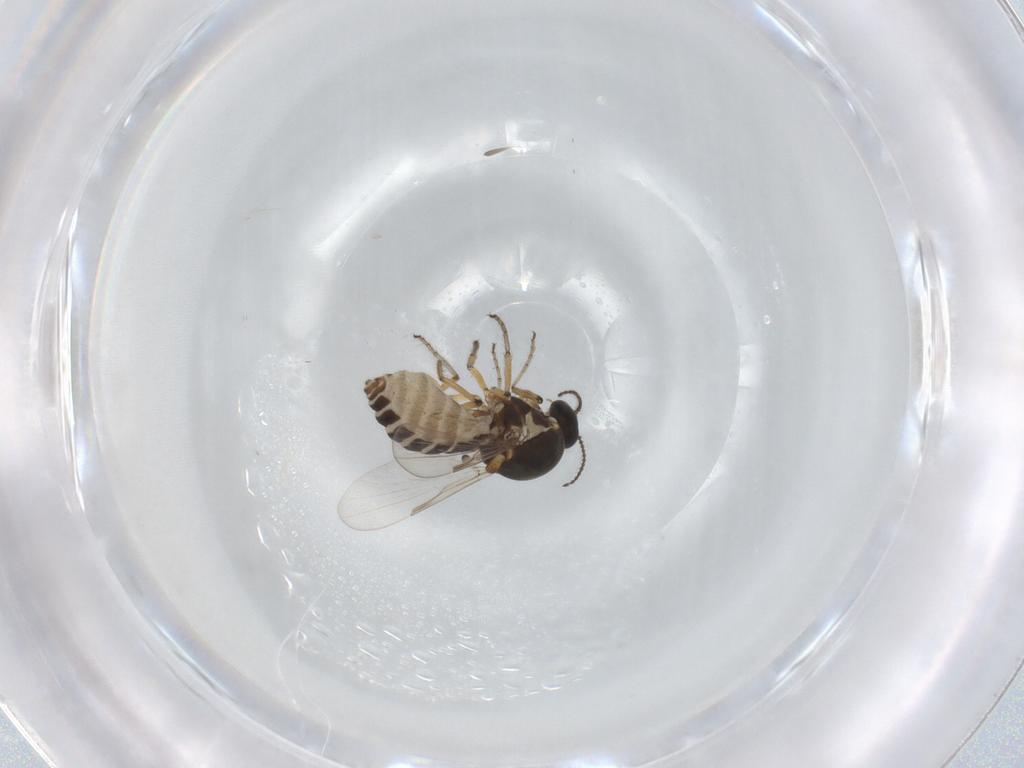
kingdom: Animalia
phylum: Arthropoda
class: Insecta
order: Diptera
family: Ceratopogonidae
